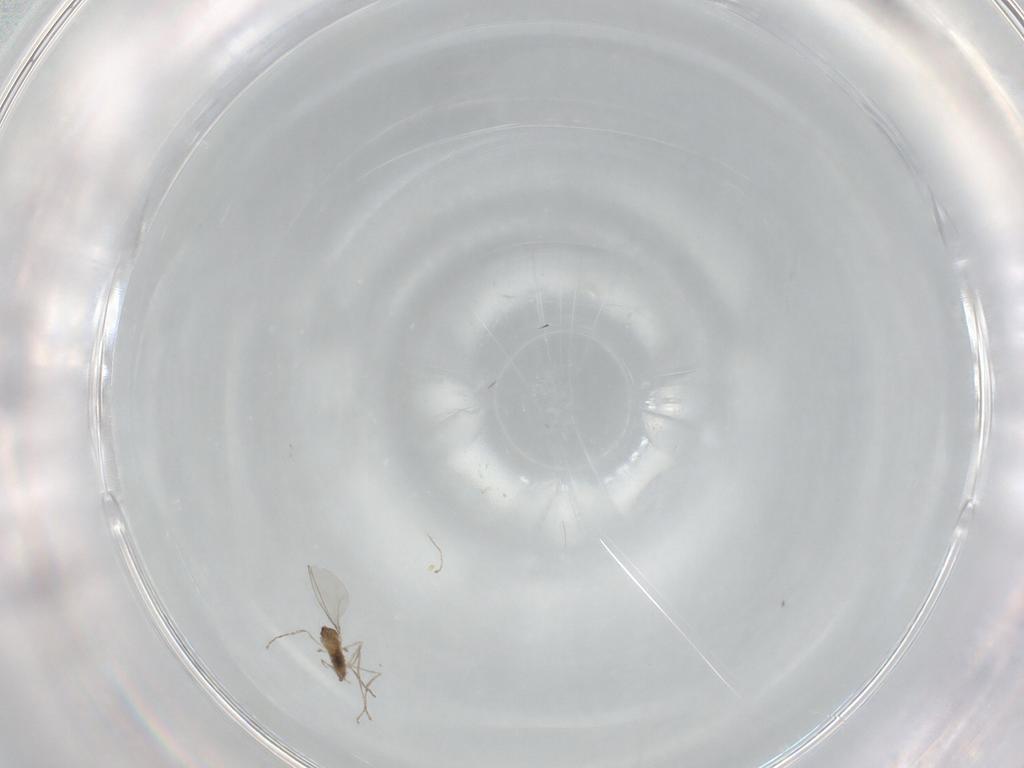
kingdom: Animalia
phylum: Arthropoda
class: Insecta
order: Diptera
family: Cecidomyiidae
